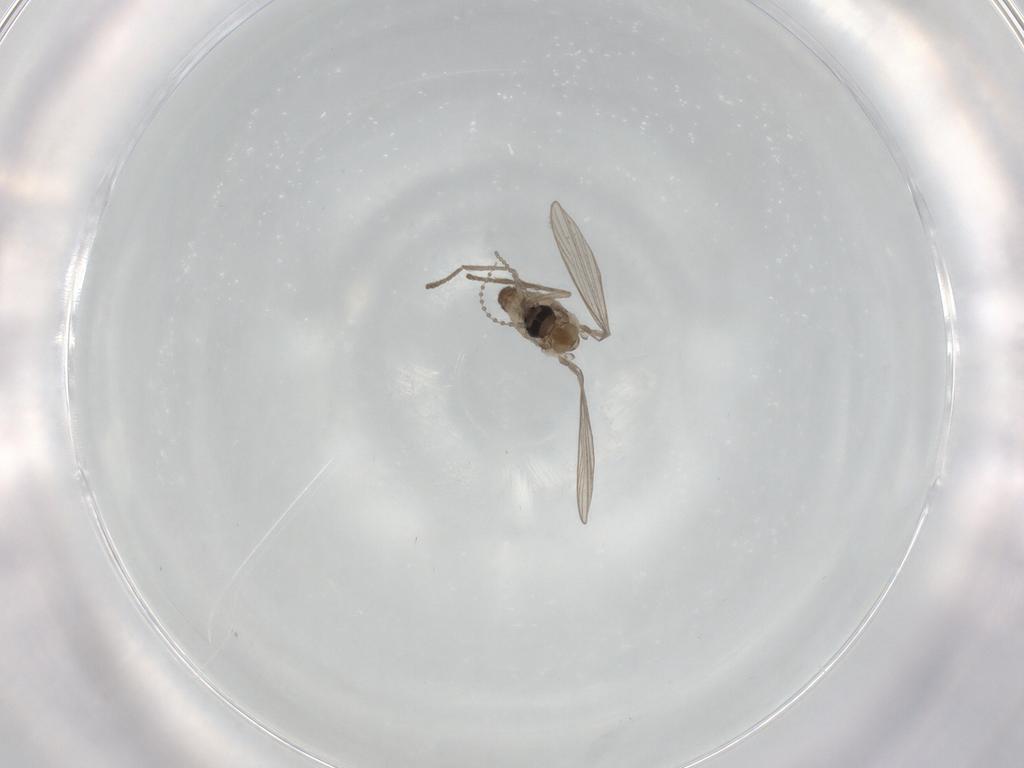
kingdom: Animalia
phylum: Arthropoda
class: Insecta
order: Diptera
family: Psychodidae
